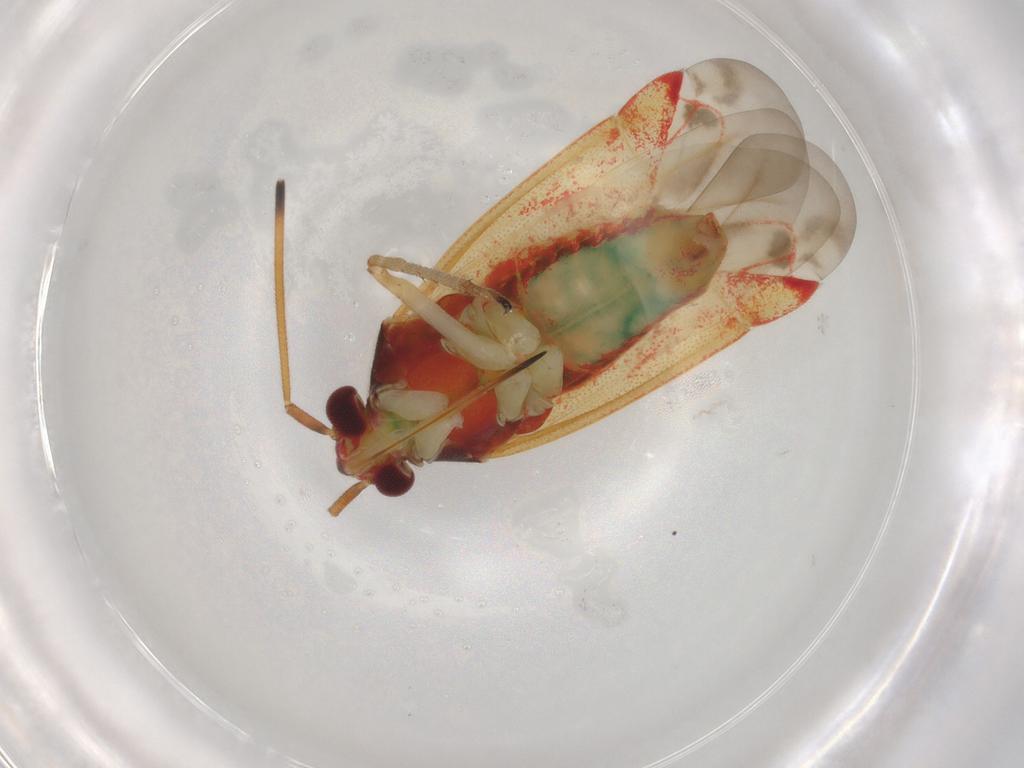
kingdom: Animalia
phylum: Arthropoda
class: Insecta
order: Hemiptera
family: Miridae
